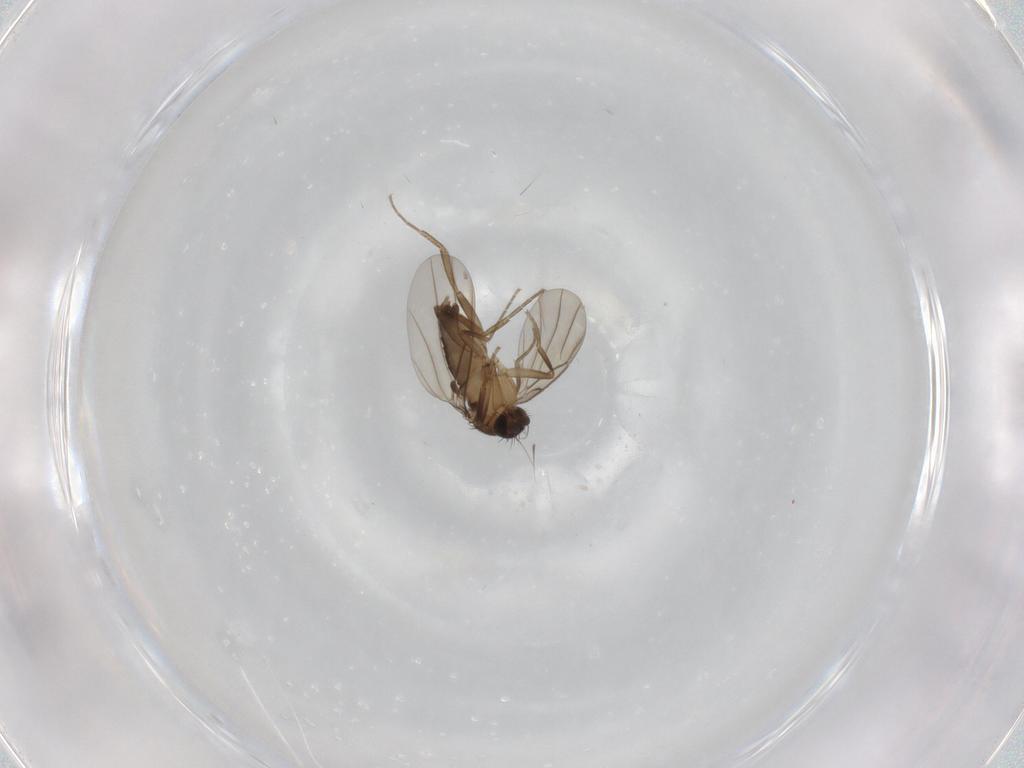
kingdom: Animalia
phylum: Arthropoda
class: Insecta
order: Diptera
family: Phoridae
